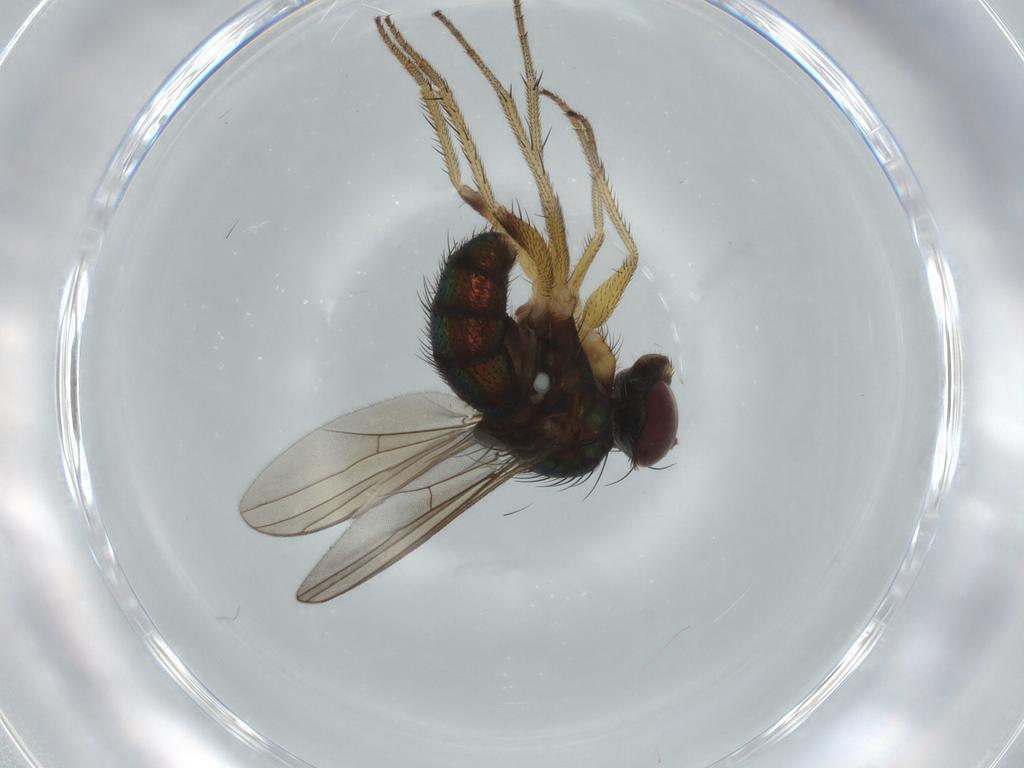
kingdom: Animalia
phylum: Arthropoda
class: Insecta
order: Diptera
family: Dolichopodidae
